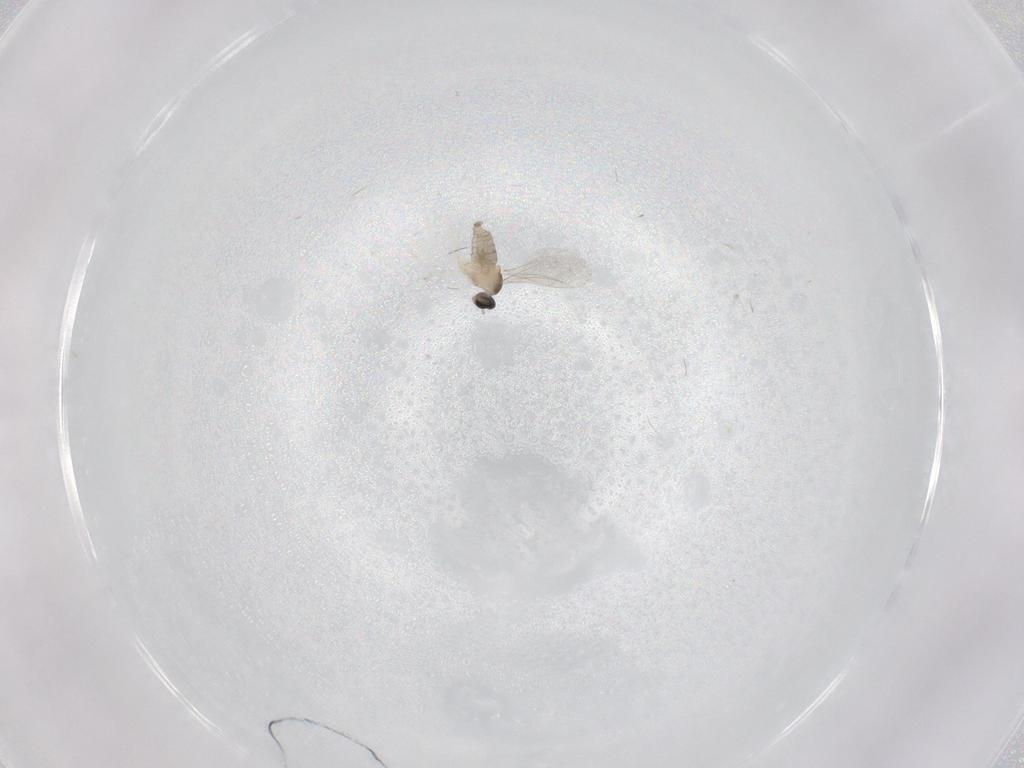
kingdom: Animalia
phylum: Arthropoda
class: Insecta
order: Diptera
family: Cecidomyiidae
